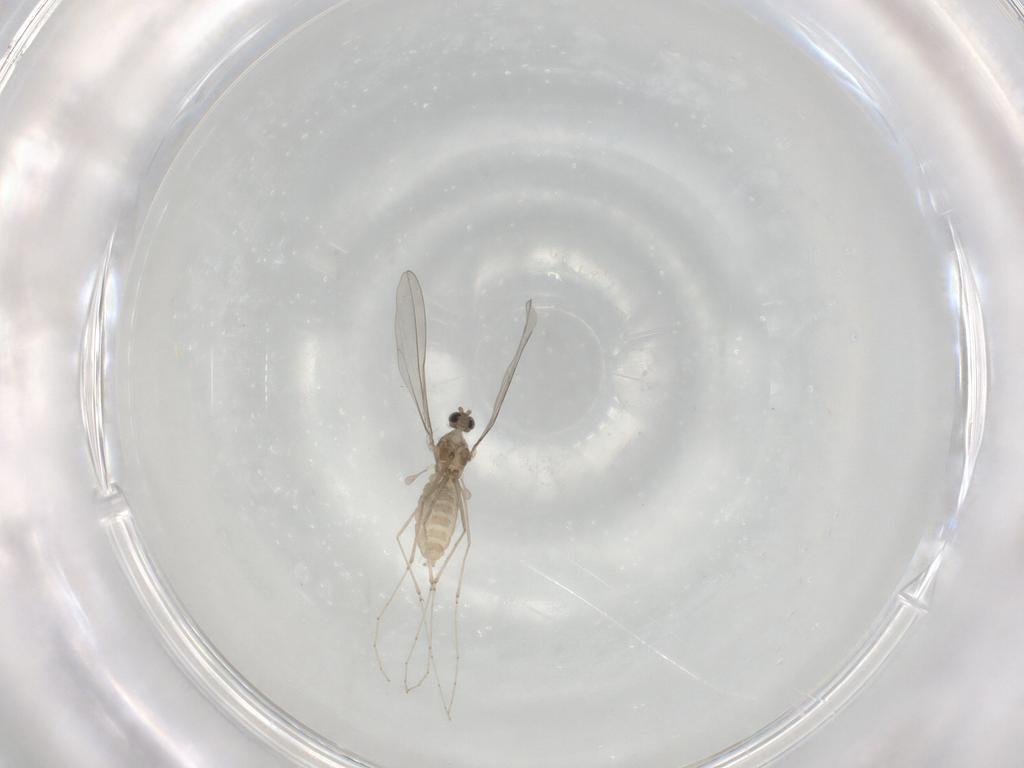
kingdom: Animalia
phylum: Arthropoda
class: Insecta
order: Diptera
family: Cecidomyiidae
